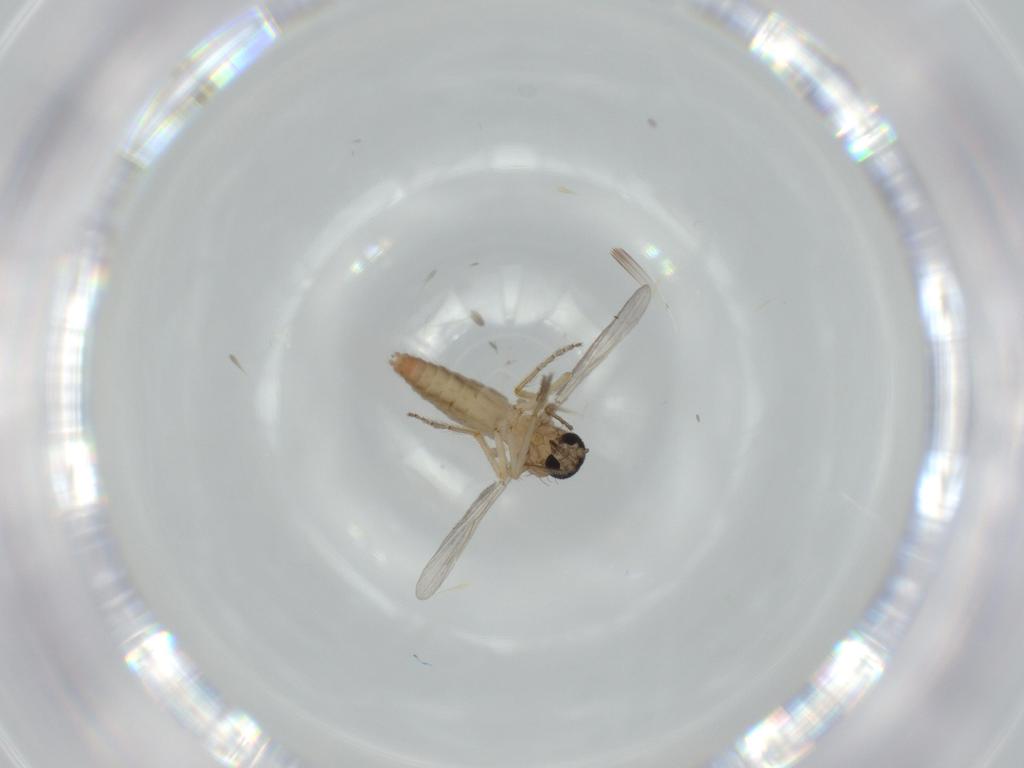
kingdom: Animalia
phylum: Arthropoda
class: Insecta
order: Diptera
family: Ceratopogonidae
